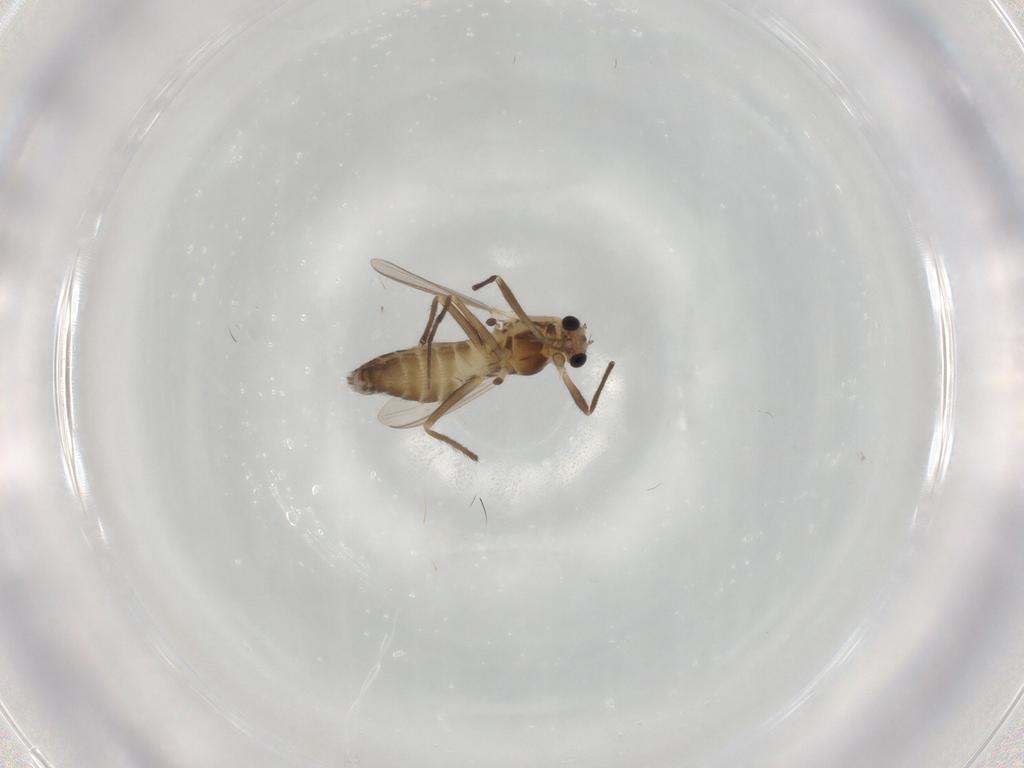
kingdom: Animalia
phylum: Arthropoda
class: Insecta
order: Diptera
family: Chironomidae
